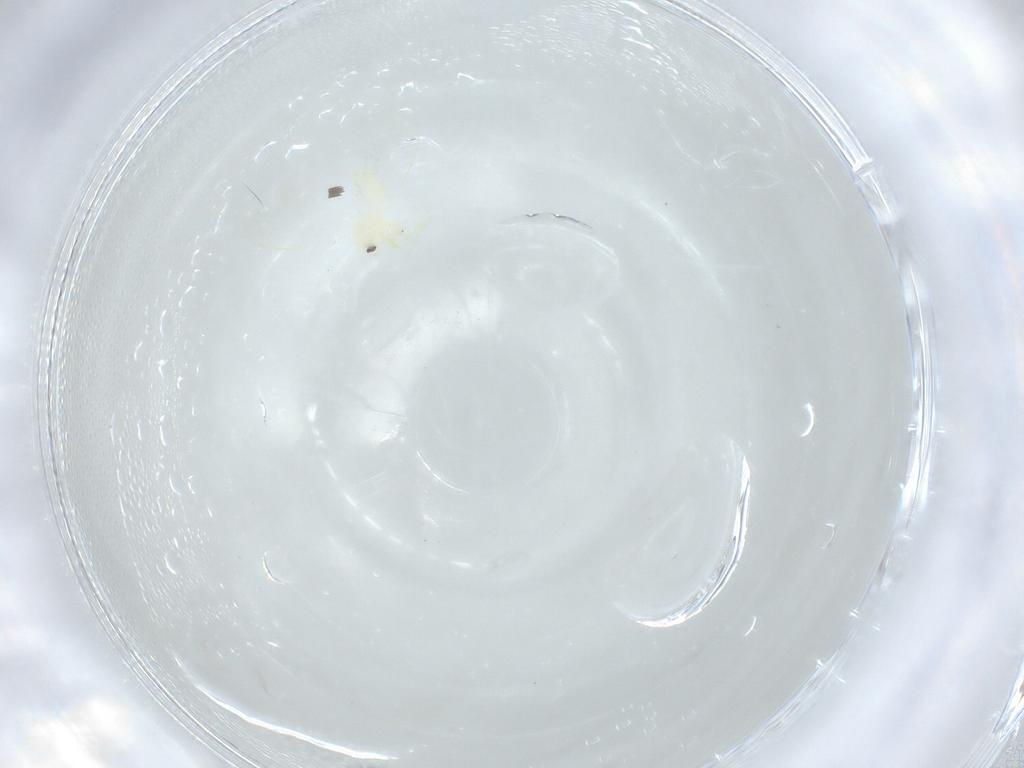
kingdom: Animalia
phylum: Arthropoda
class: Insecta
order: Hemiptera
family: Aleyrodidae
